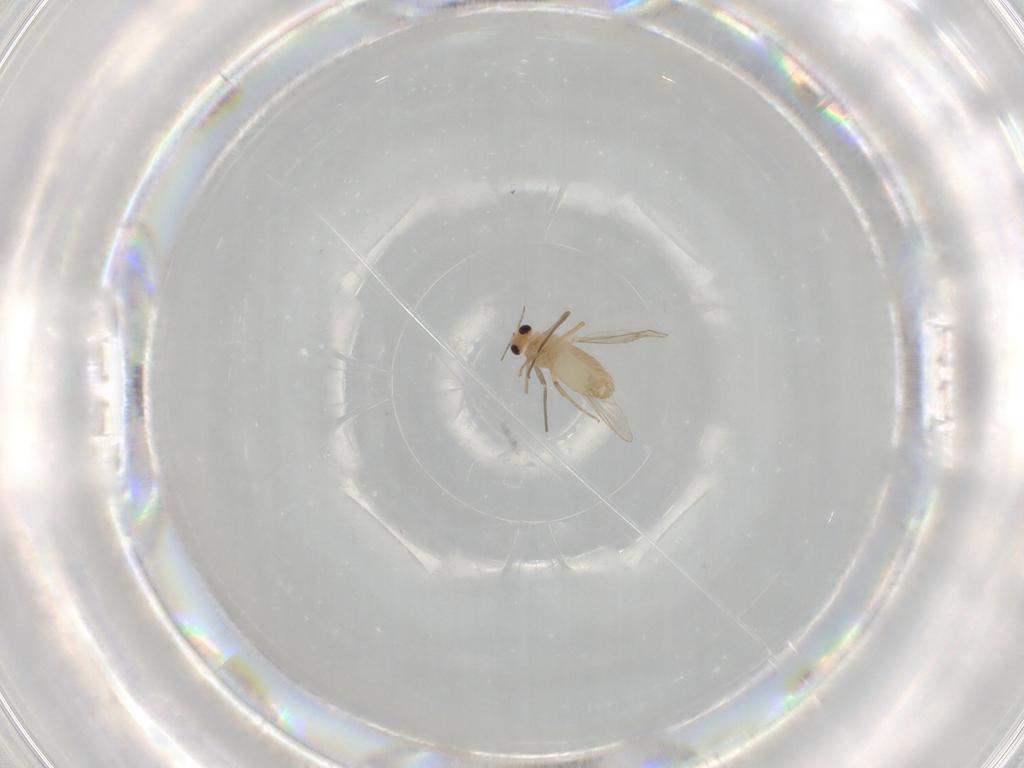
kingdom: Animalia
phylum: Arthropoda
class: Insecta
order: Diptera
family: Chironomidae
